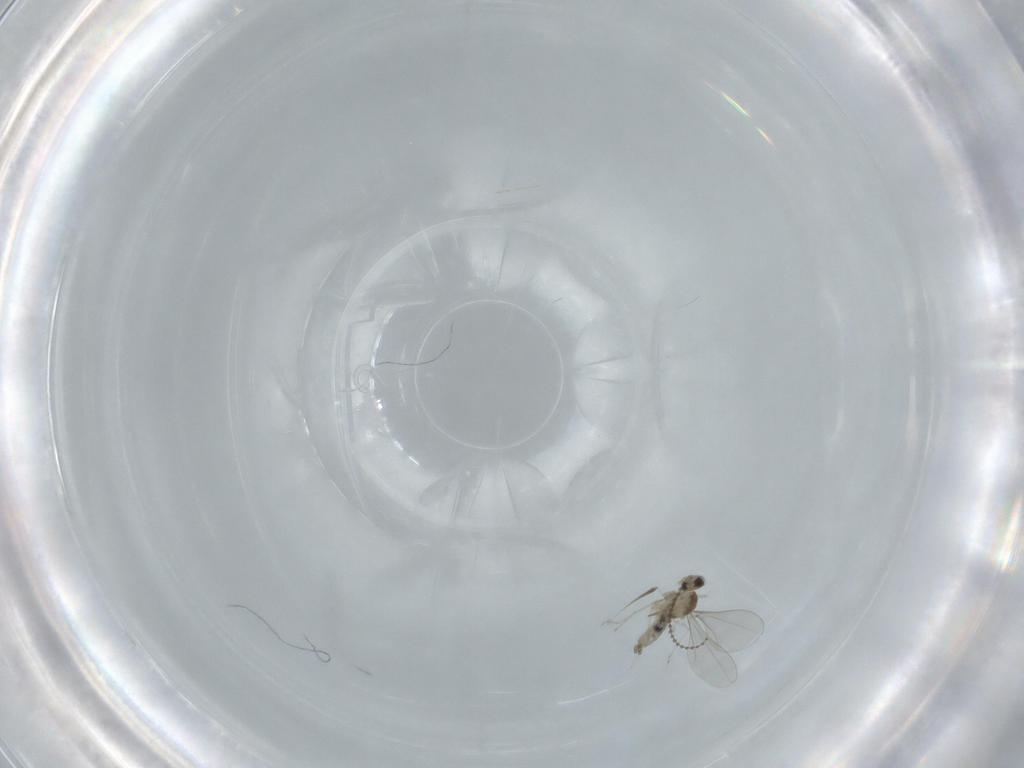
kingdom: Animalia
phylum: Arthropoda
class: Insecta
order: Diptera
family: Cecidomyiidae
